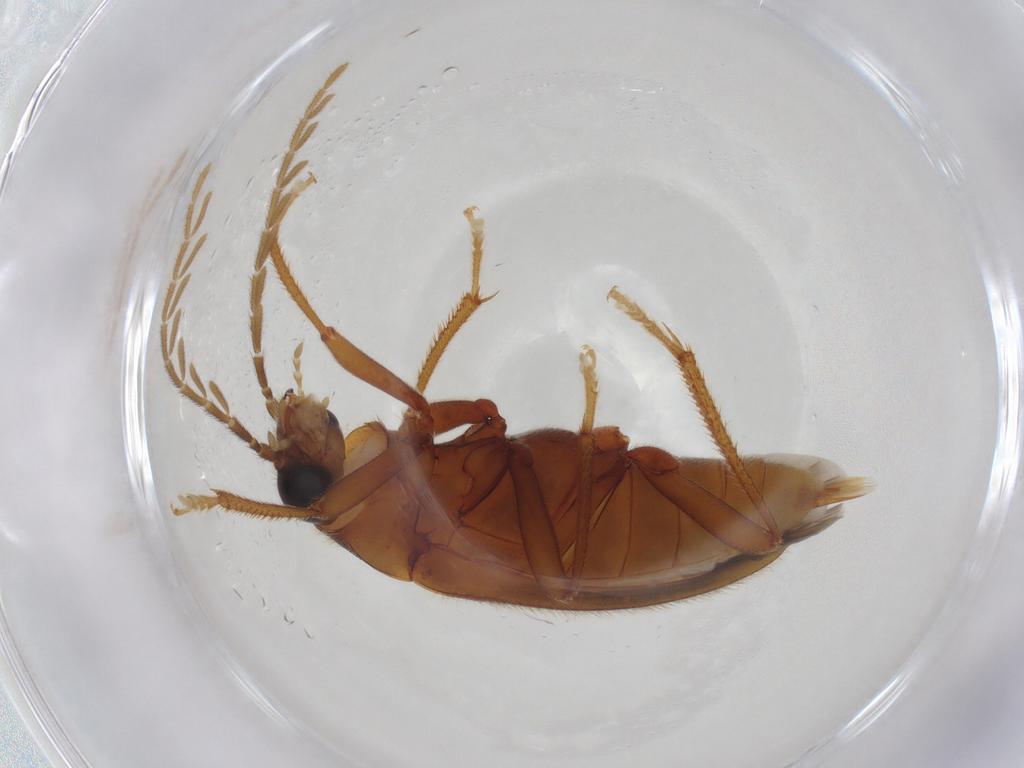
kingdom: Animalia
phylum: Arthropoda
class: Insecta
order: Coleoptera
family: Ptilodactylidae
